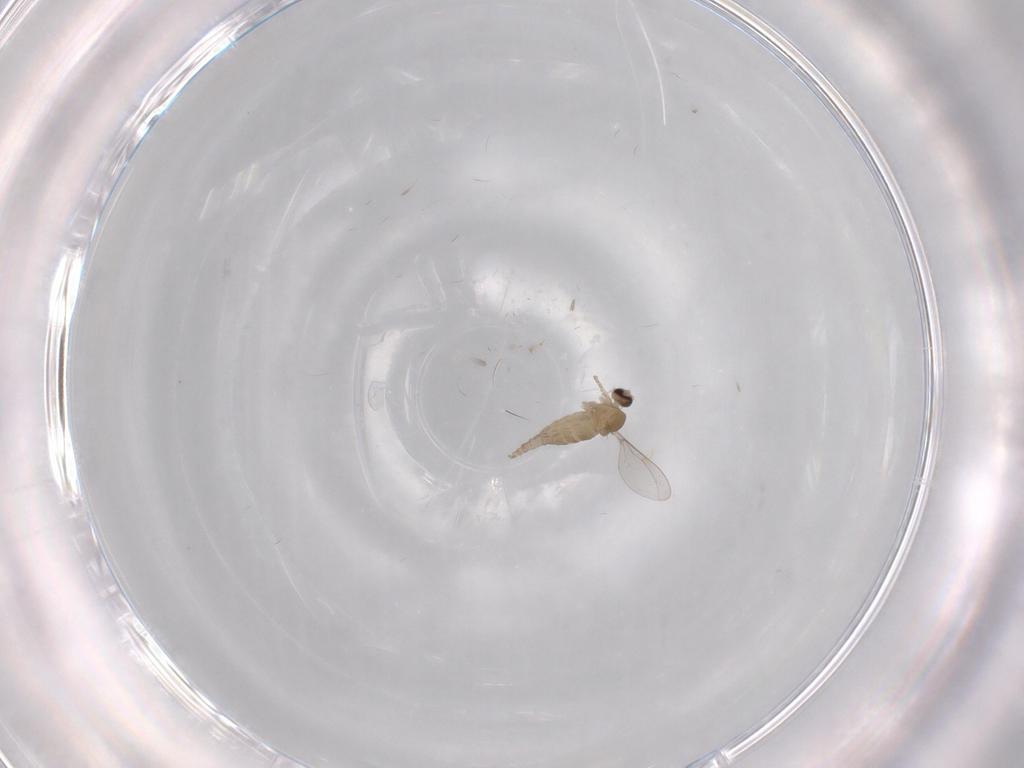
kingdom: Animalia
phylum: Arthropoda
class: Insecta
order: Diptera
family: Cecidomyiidae
